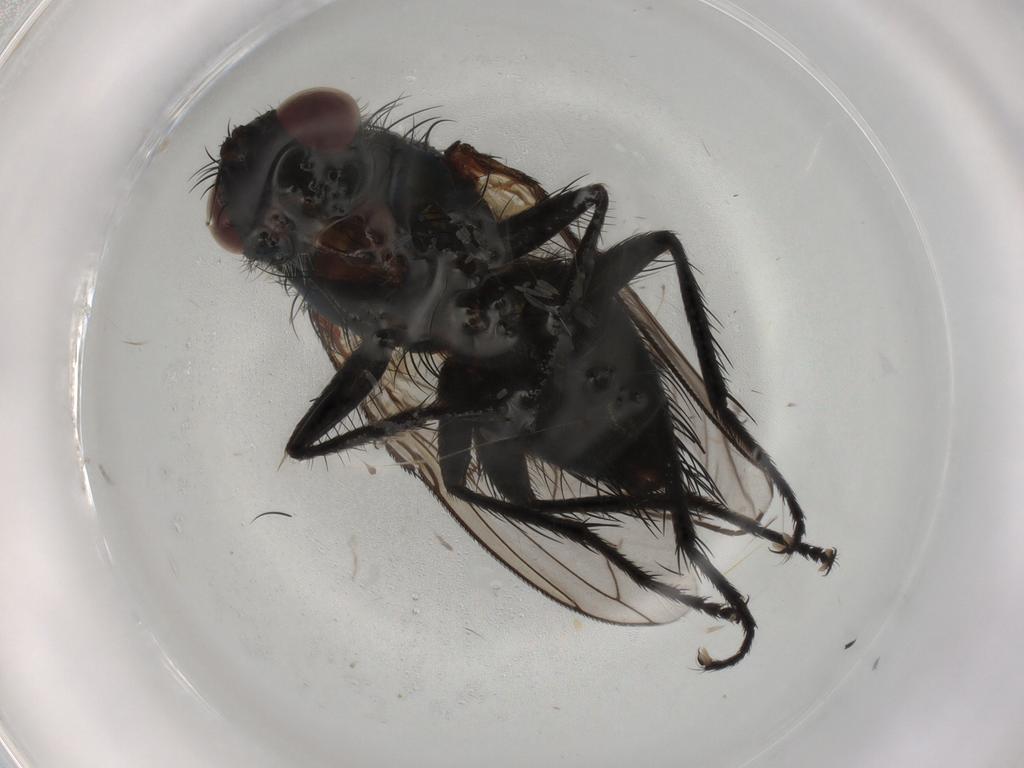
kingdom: Animalia
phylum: Arthropoda
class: Insecta
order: Diptera
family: Tachinidae
